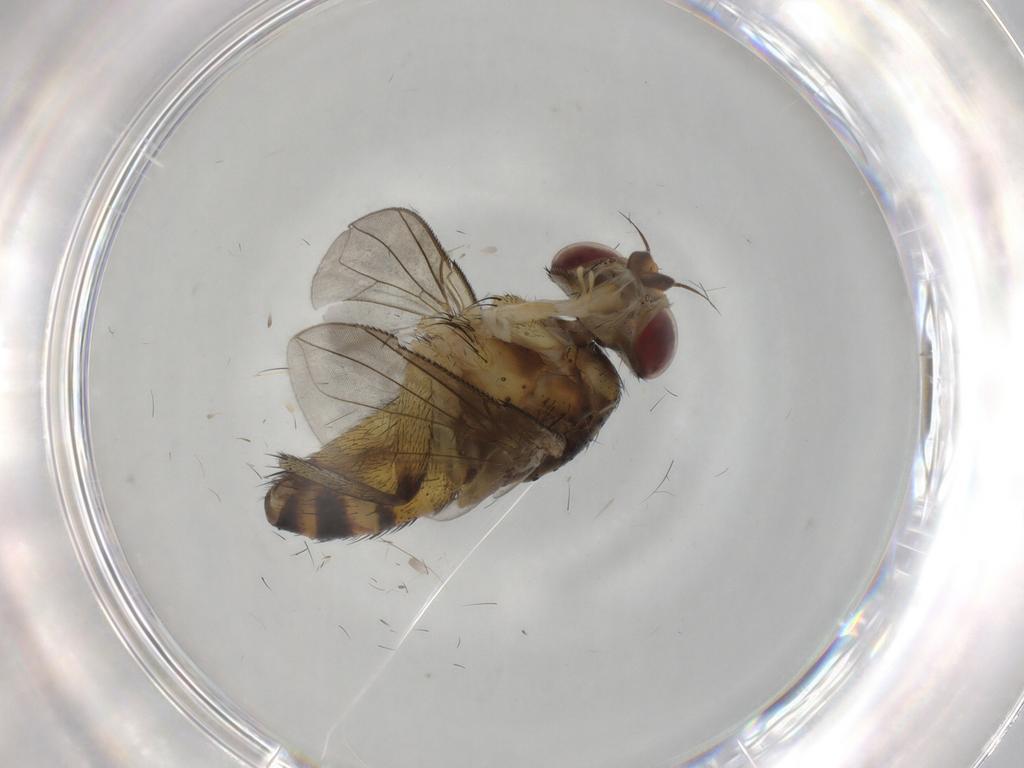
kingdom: Animalia
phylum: Arthropoda
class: Insecta
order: Diptera
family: Tachinidae
